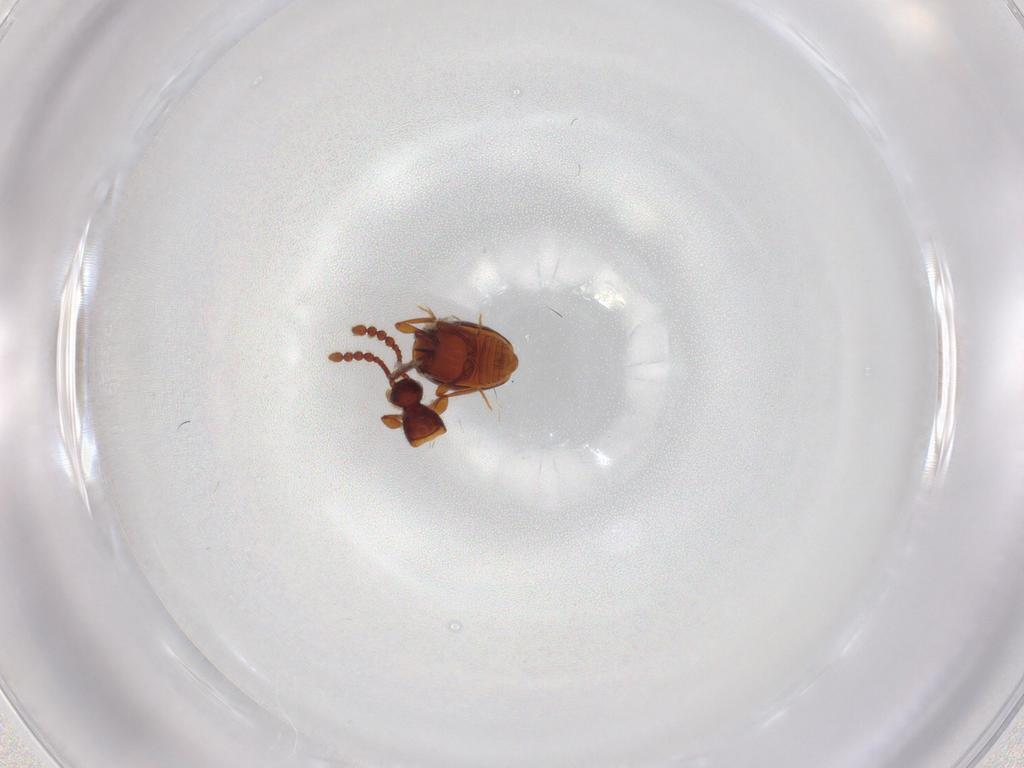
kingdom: Animalia
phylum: Arthropoda
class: Insecta
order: Coleoptera
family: Staphylinidae
